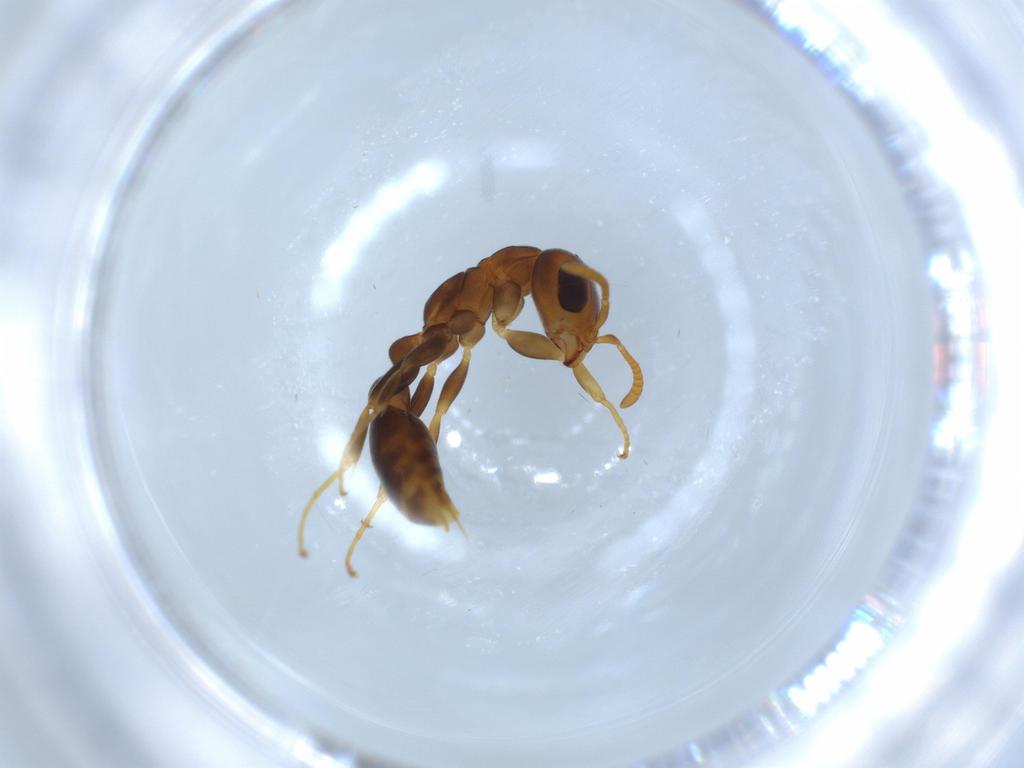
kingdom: Animalia
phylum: Arthropoda
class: Insecta
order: Hymenoptera
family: Formicidae
